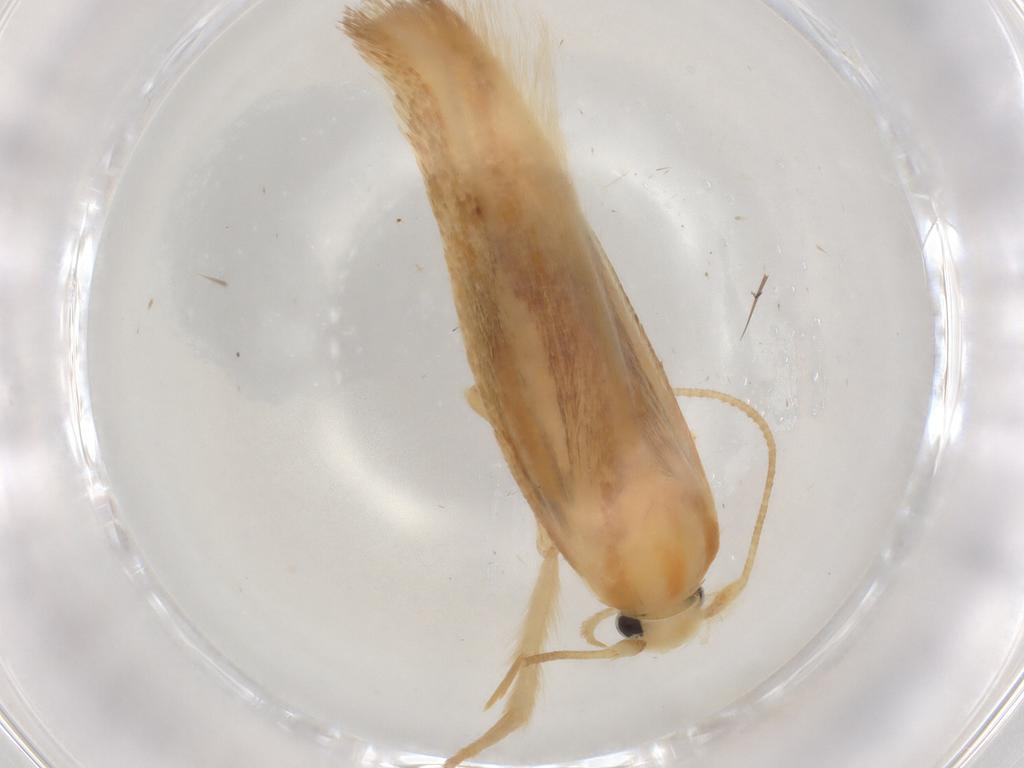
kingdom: Animalia
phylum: Arthropoda
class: Insecta
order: Lepidoptera
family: Geometridae
